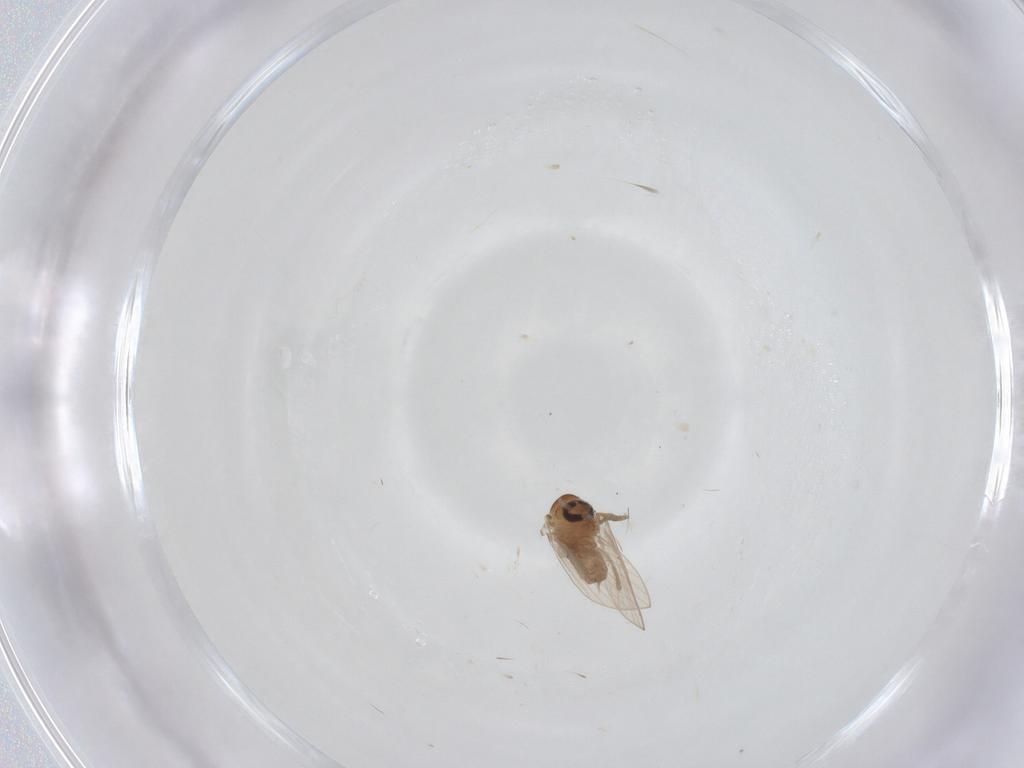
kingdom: Animalia
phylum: Arthropoda
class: Insecta
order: Diptera
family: Psychodidae
